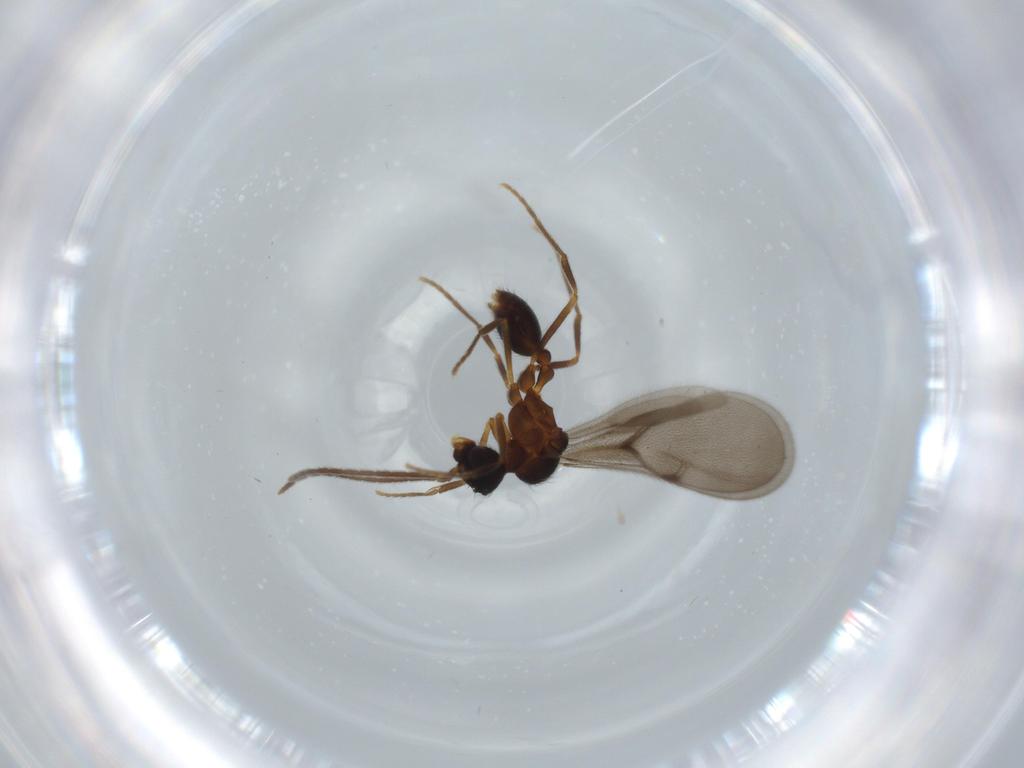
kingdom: Animalia
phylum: Arthropoda
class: Insecta
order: Hymenoptera
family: Formicidae
